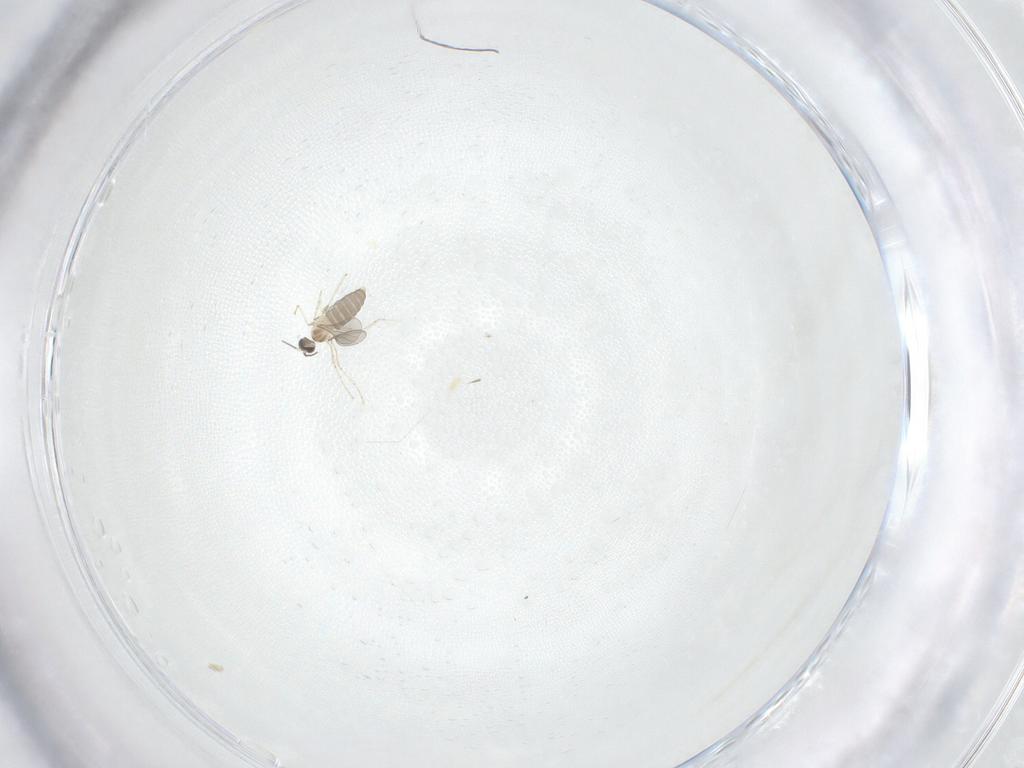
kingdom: Animalia
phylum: Arthropoda
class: Insecta
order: Diptera
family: Cecidomyiidae
